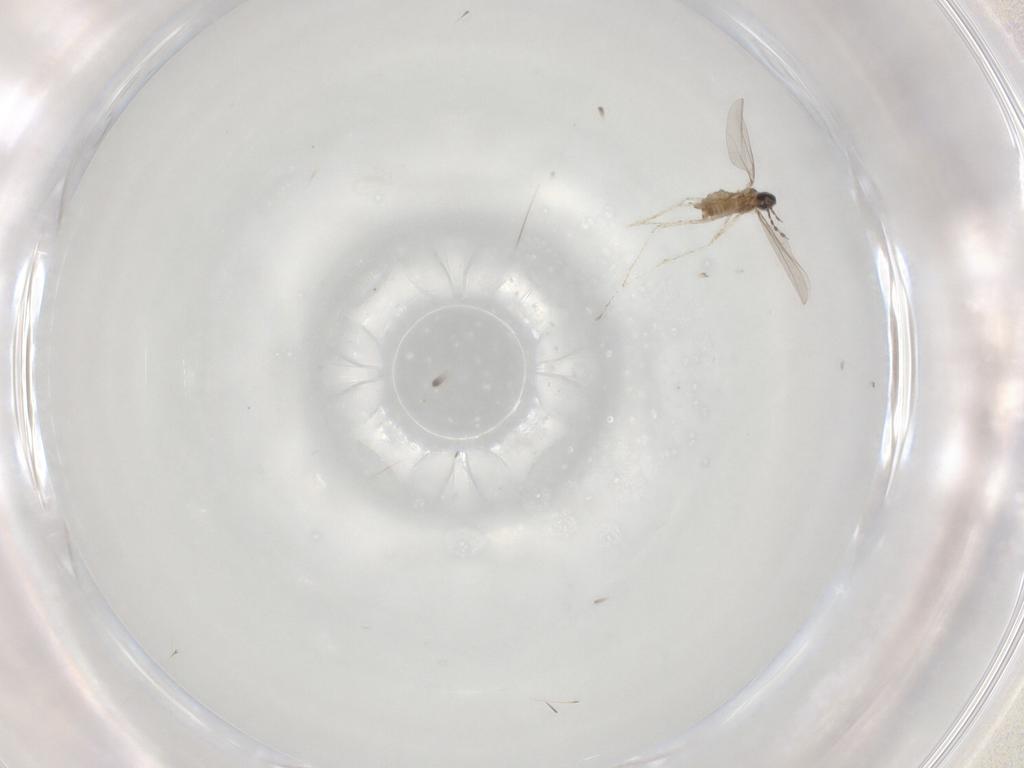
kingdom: Animalia
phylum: Arthropoda
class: Insecta
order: Diptera
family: Cecidomyiidae
